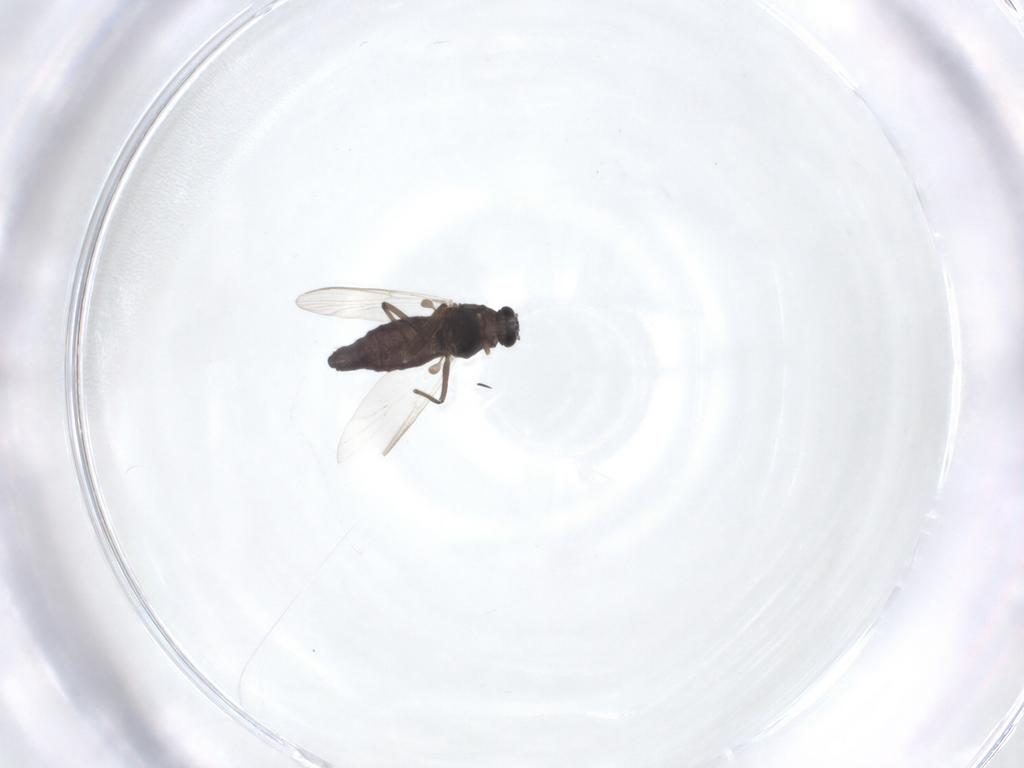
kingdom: Animalia
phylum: Arthropoda
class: Insecta
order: Diptera
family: Chironomidae
